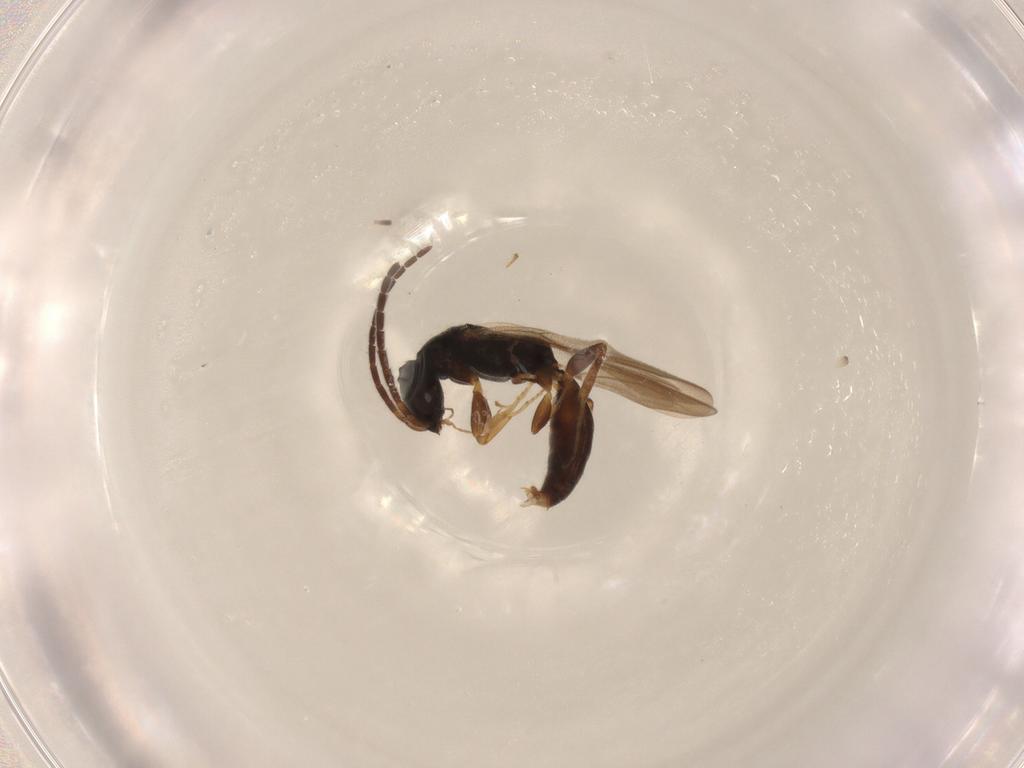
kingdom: Animalia
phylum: Arthropoda
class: Insecta
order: Hymenoptera
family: Bethylidae
